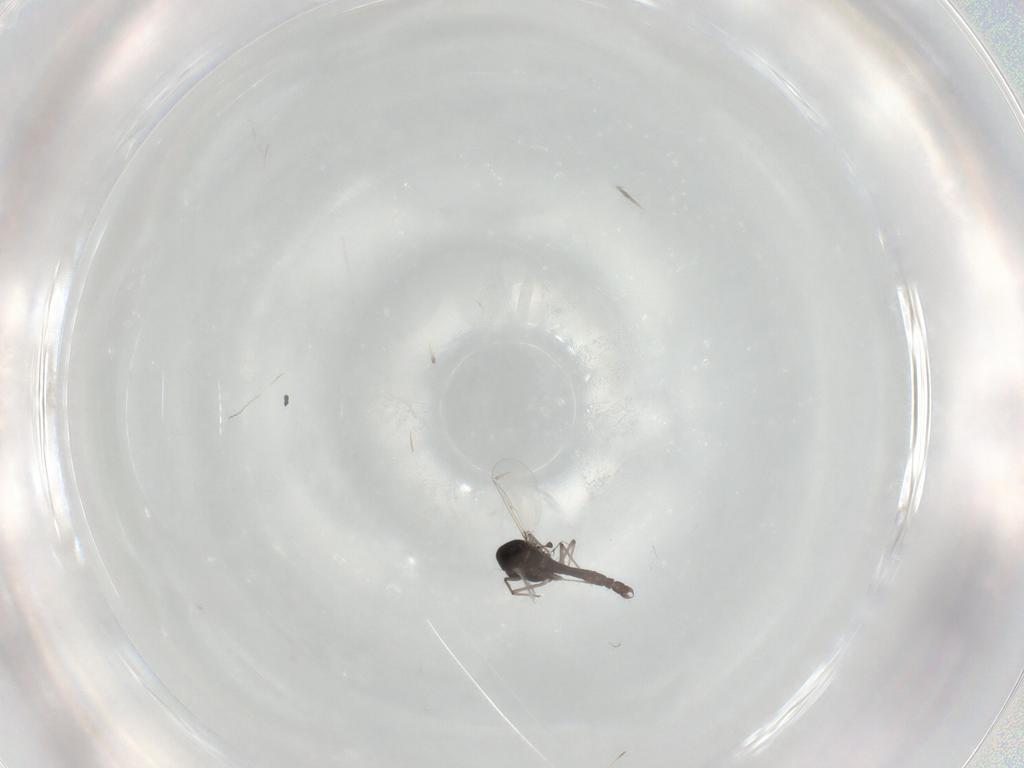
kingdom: Animalia
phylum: Arthropoda
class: Insecta
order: Diptera
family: Chironomidae
